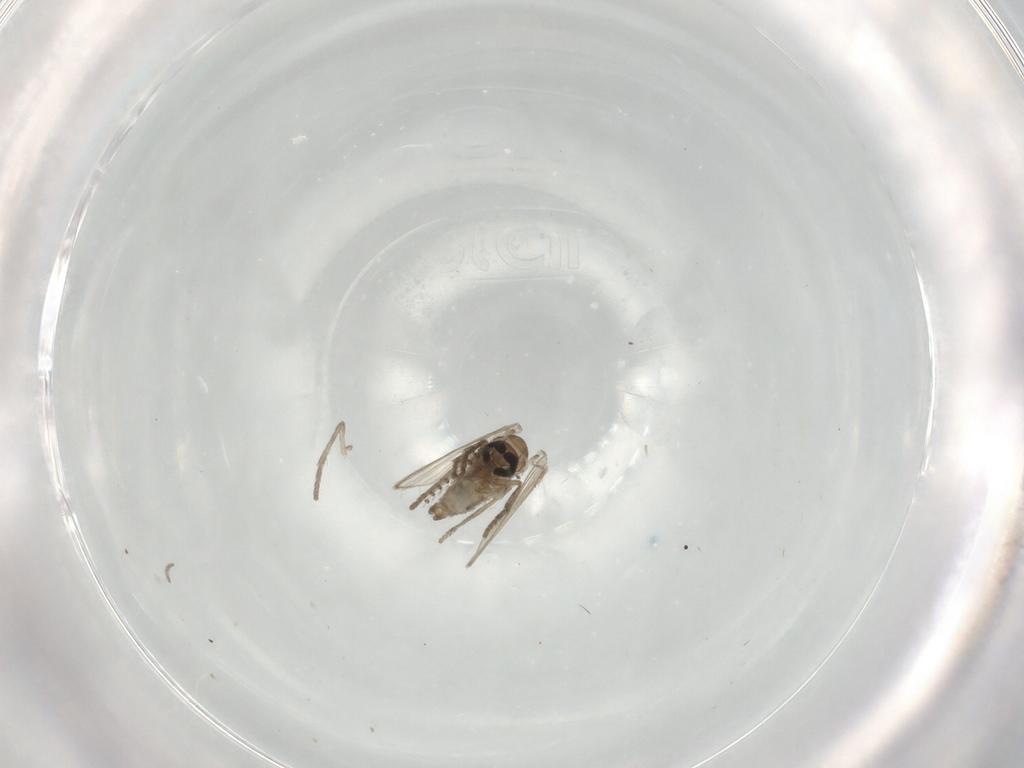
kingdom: Animalia
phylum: Arthropoda
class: Insecta
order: Diptera
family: Psychodidae
